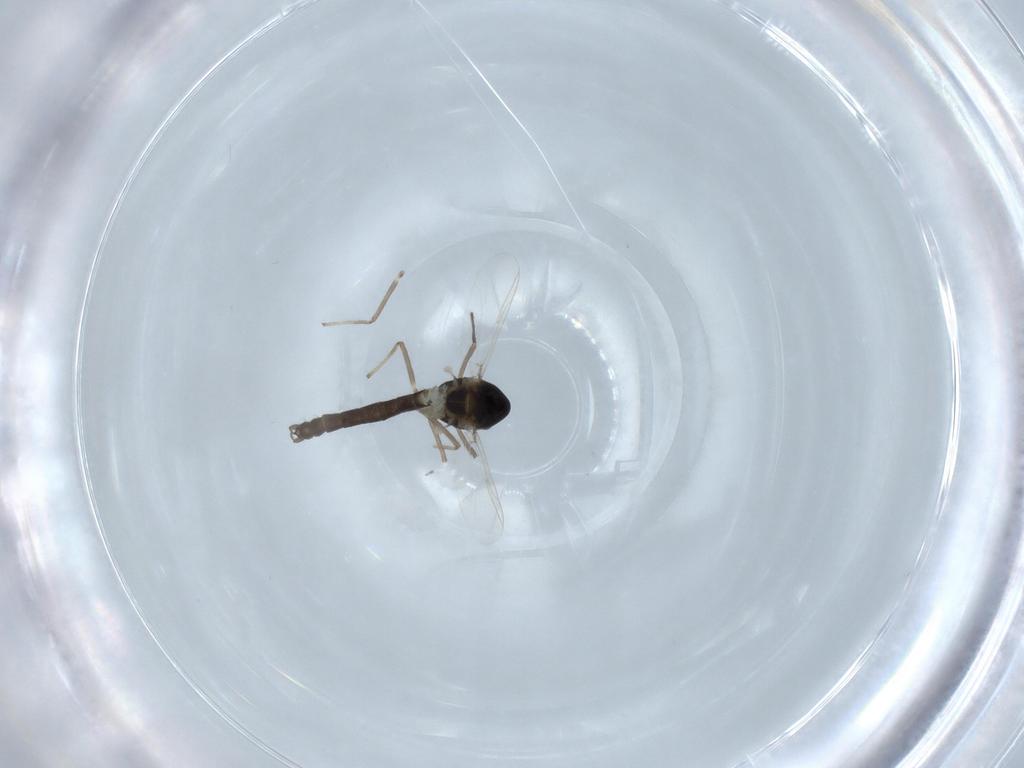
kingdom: Animalia
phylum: Arthropoda
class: Insecta
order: Diptera
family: Chironomidae
